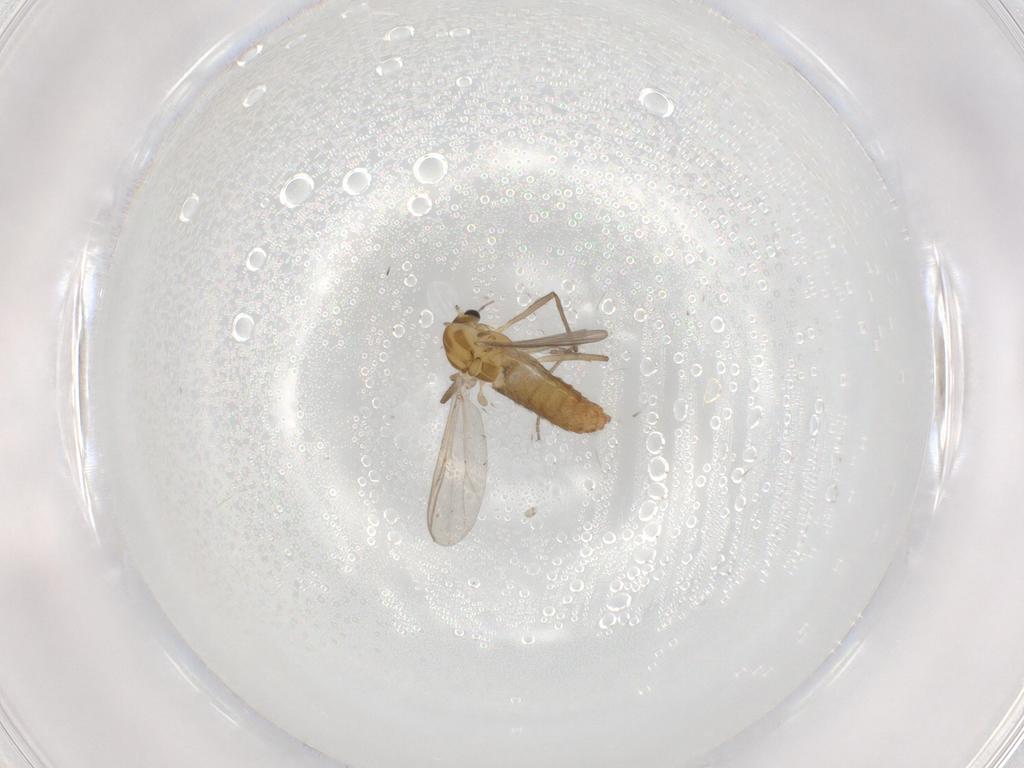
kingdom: Animalia
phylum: Arthropoda
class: Insecta
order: Diptera
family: Chironomidae
